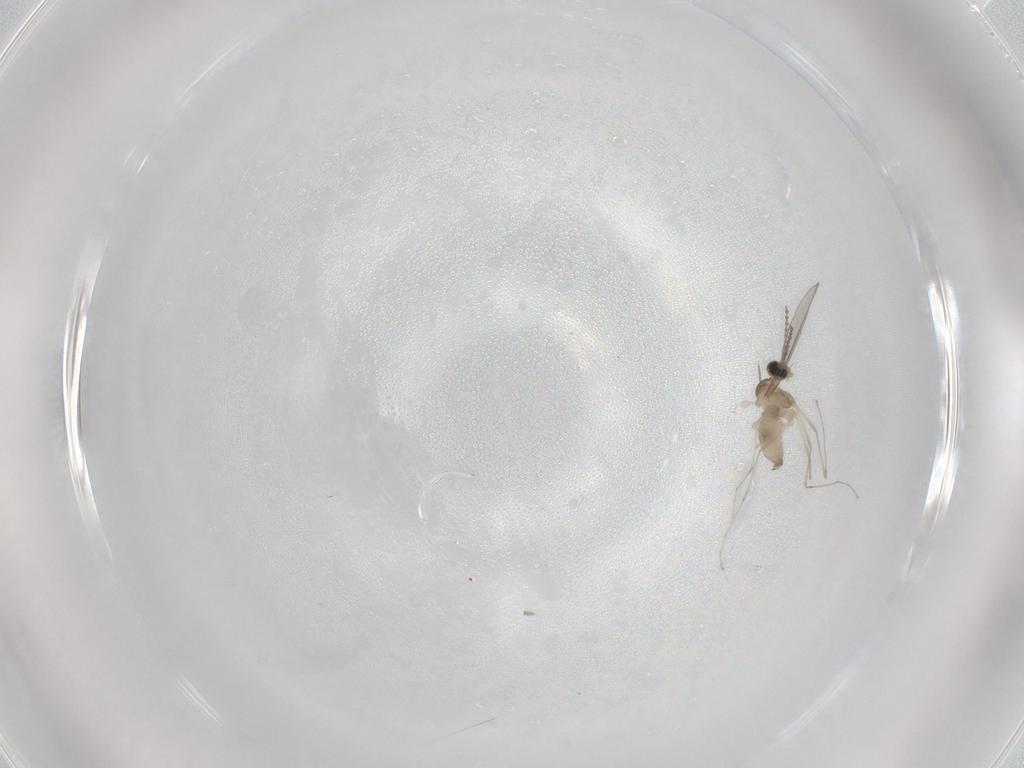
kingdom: Animalia
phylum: Arthropoda
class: Insecta
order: Diptera
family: Cecidomyiidae
